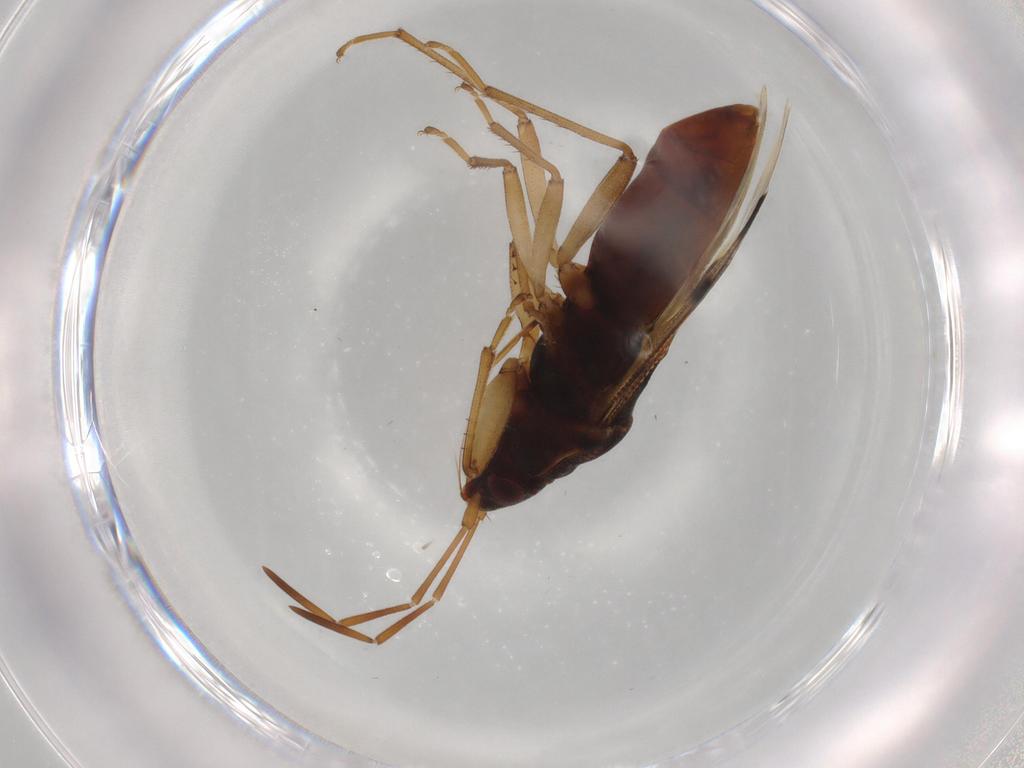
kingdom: Animalia
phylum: Arthropoda
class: Insecta
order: Hemiptera
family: Rhyparochromidae
